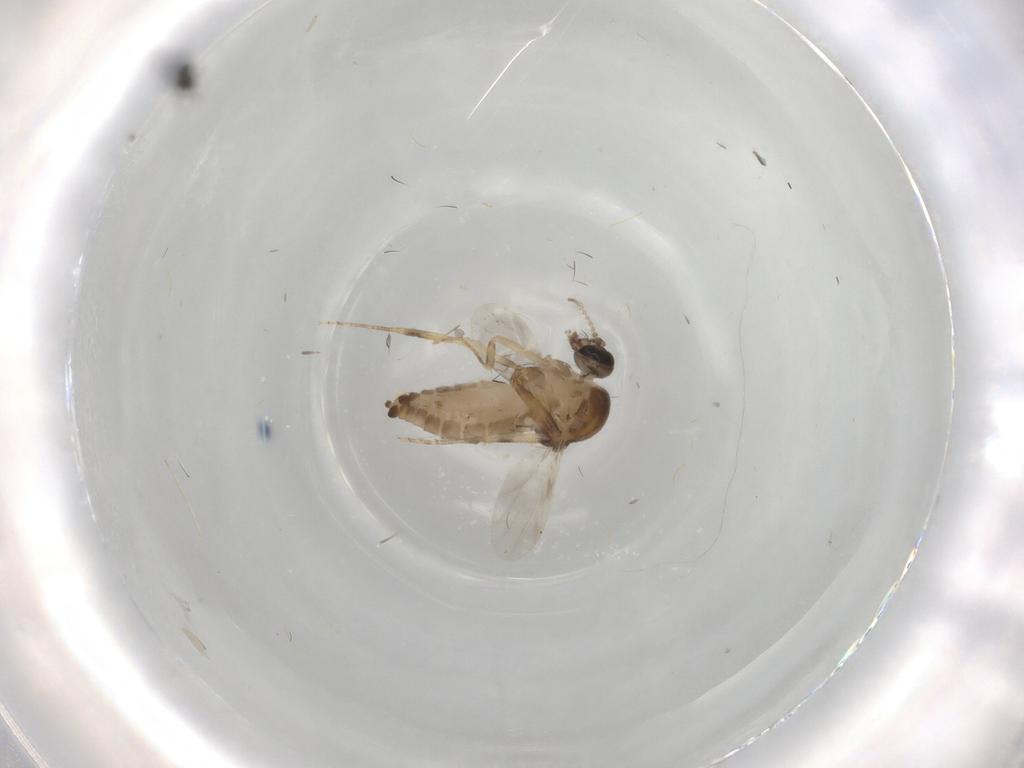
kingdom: Animalia
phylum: Arthropoda
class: Insecta
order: Diptera
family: Ceratopogonidae
